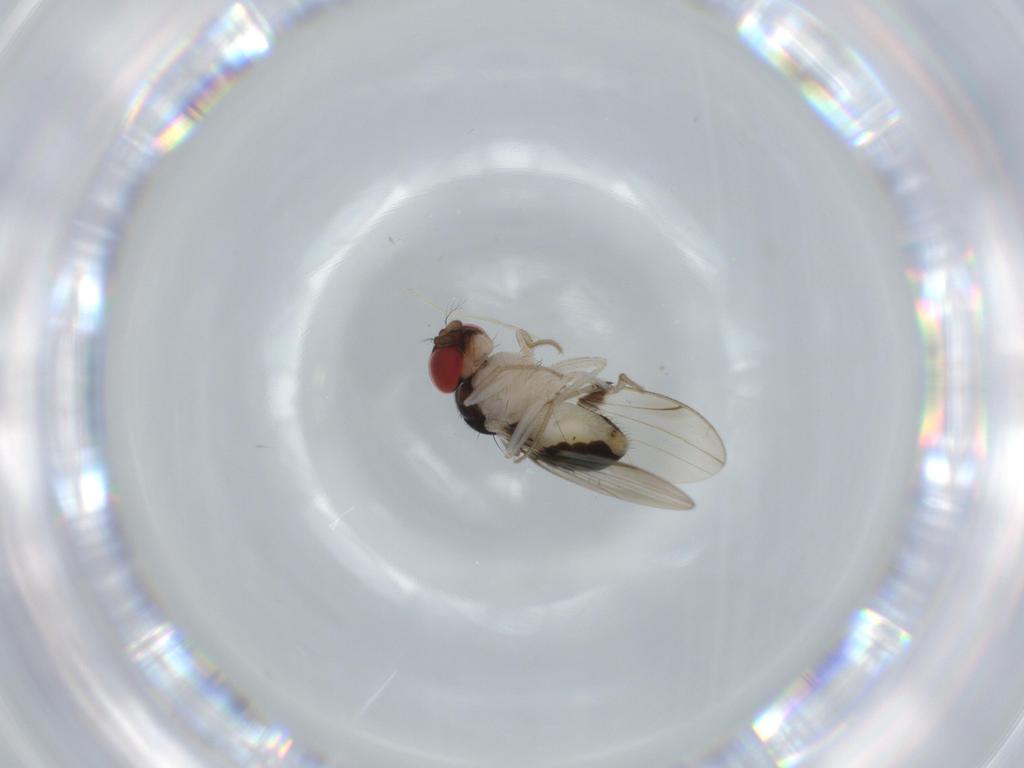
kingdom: Animalia
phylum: Arthropoda
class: Insecta
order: Diptera
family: Drosophilidae
